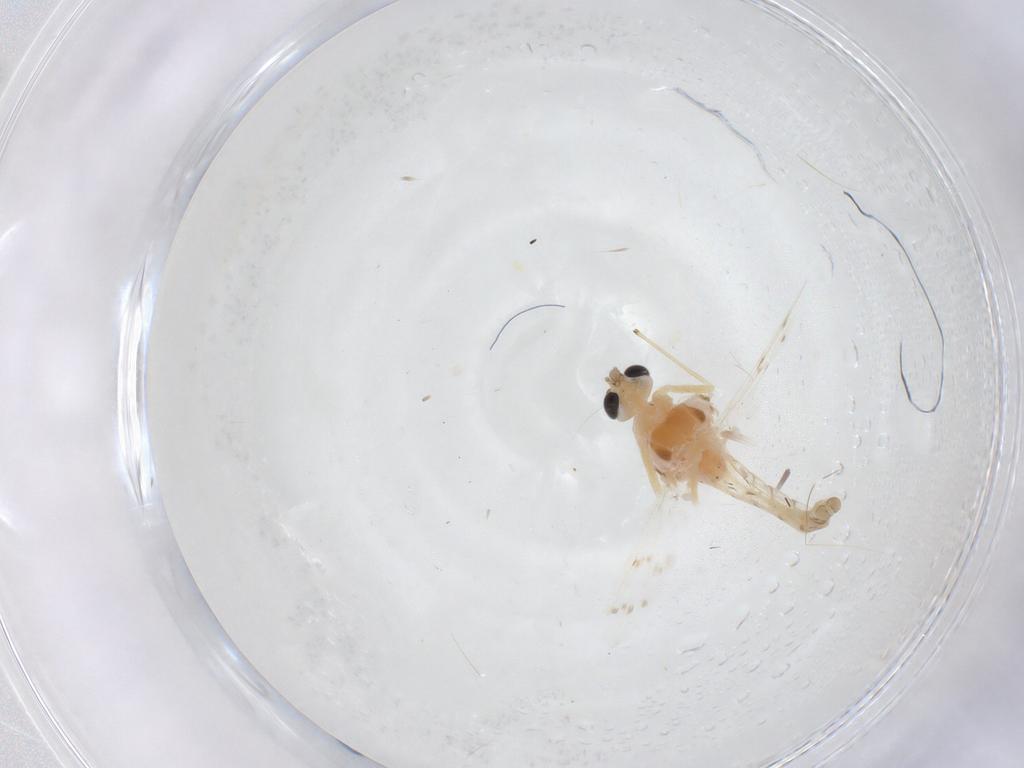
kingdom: Animalia
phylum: Arthropoda
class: Insecta
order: Diptera
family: Chironomidae
